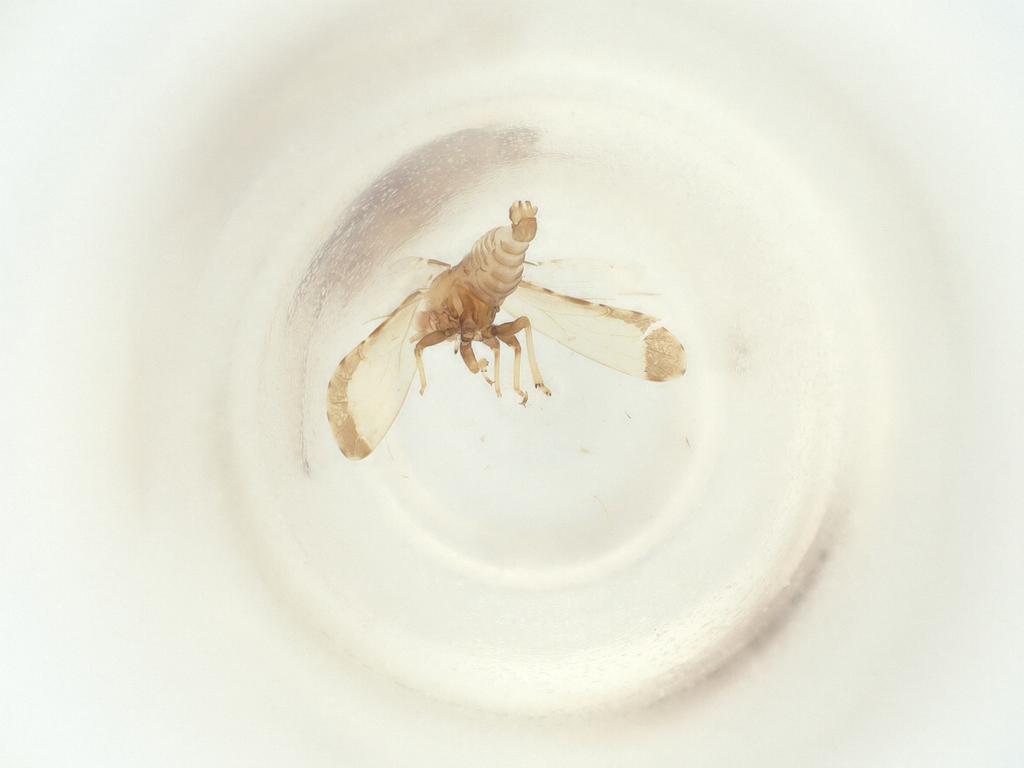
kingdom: Animalia
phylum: Arthropoda
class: Insecta
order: Hemiptera
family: Psyllidae
